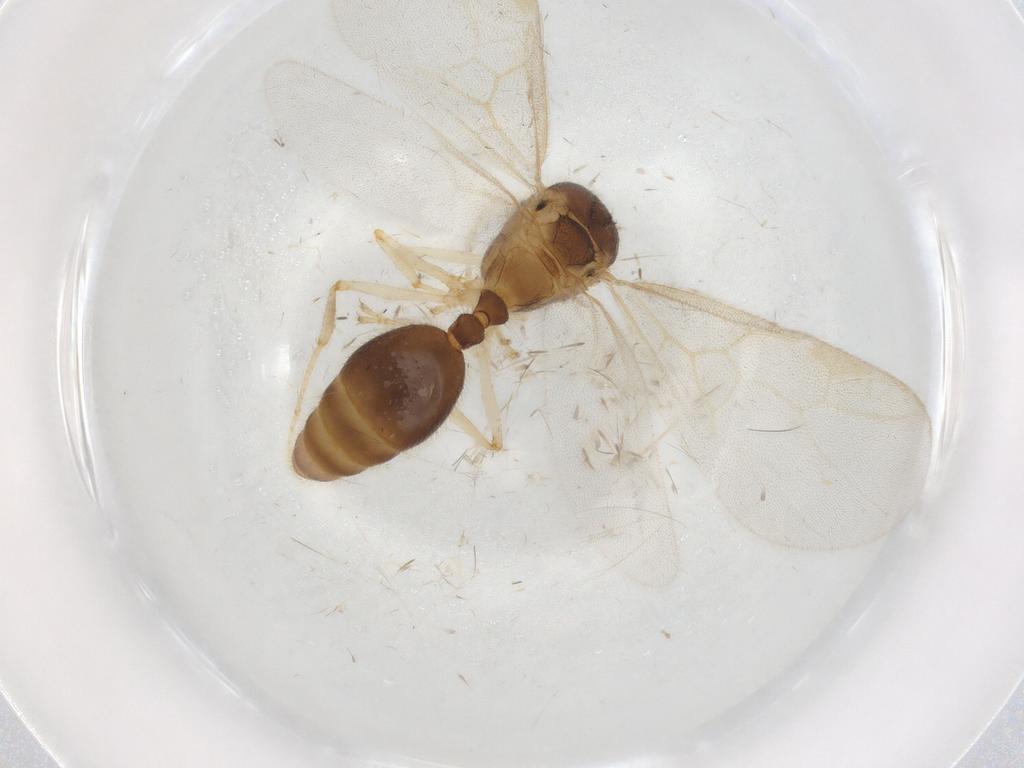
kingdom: Animalia
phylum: Arthropoda
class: Insecta
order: Hymenoptera
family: Braconidae
